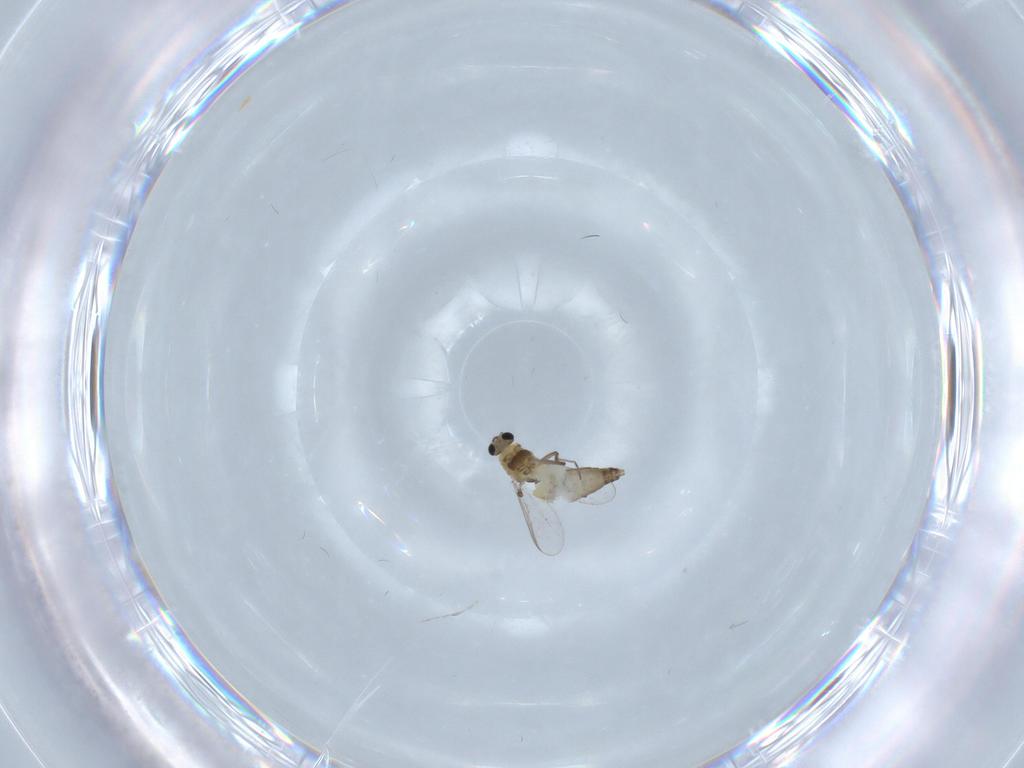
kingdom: Animalia
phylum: Arthropoda
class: Insecta
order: Diptera
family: Chironomidae
